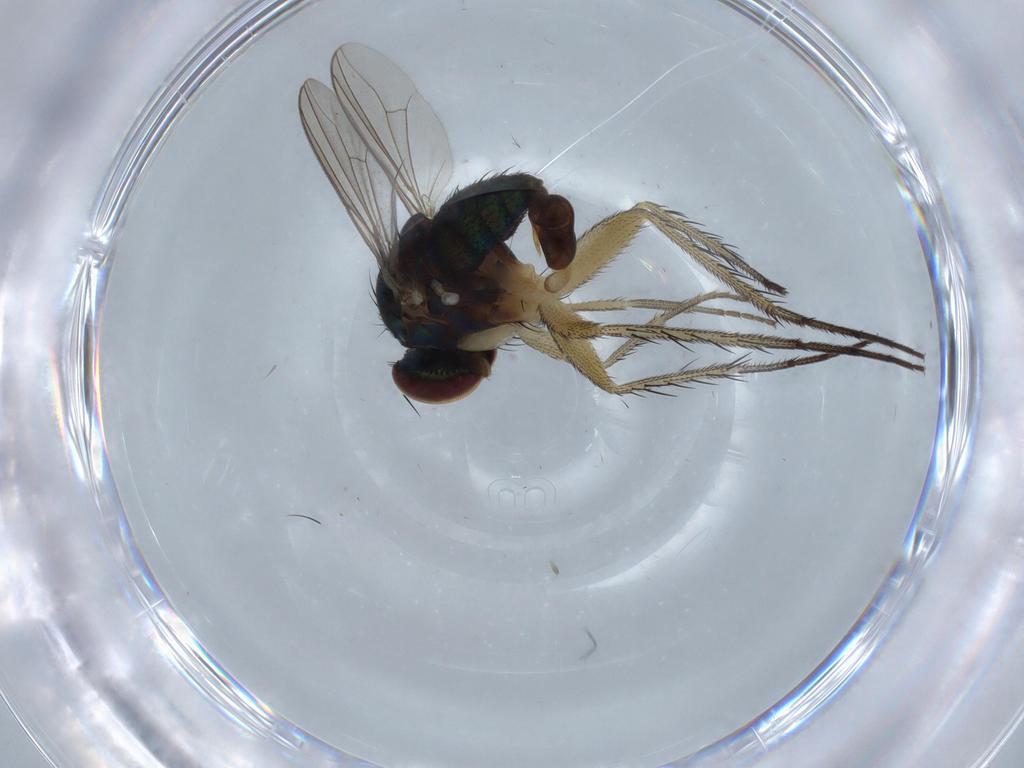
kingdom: Animalia
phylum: Arthropoda
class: Insecta
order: Diptera
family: Dolichopodidae
